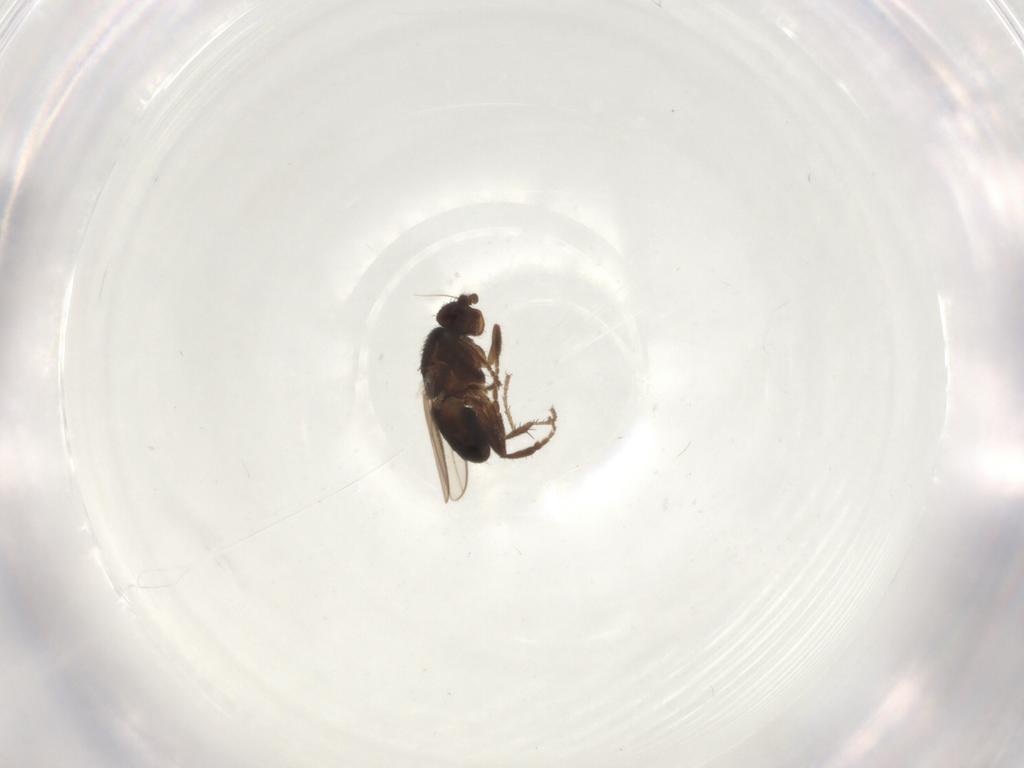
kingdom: Animalia
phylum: Arthropoda
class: Insecta
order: Diptera
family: Sphaeroceridae
